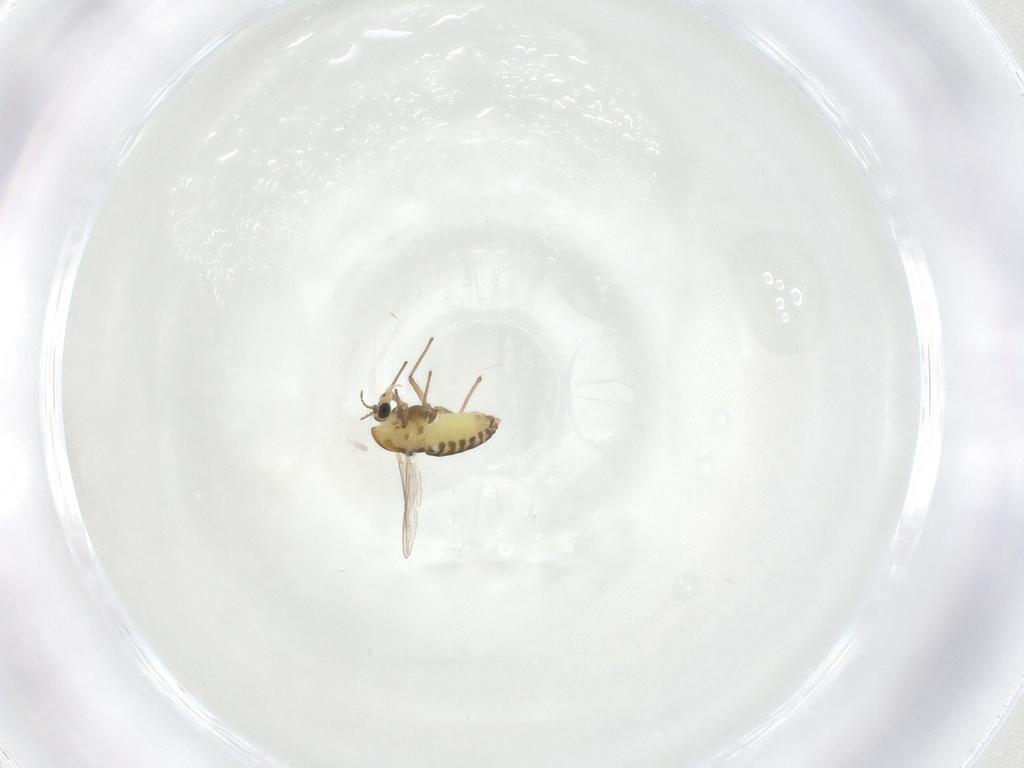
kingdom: Animalia
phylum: Arthropoda
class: Insecta
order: Diptera
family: Chironomidae
